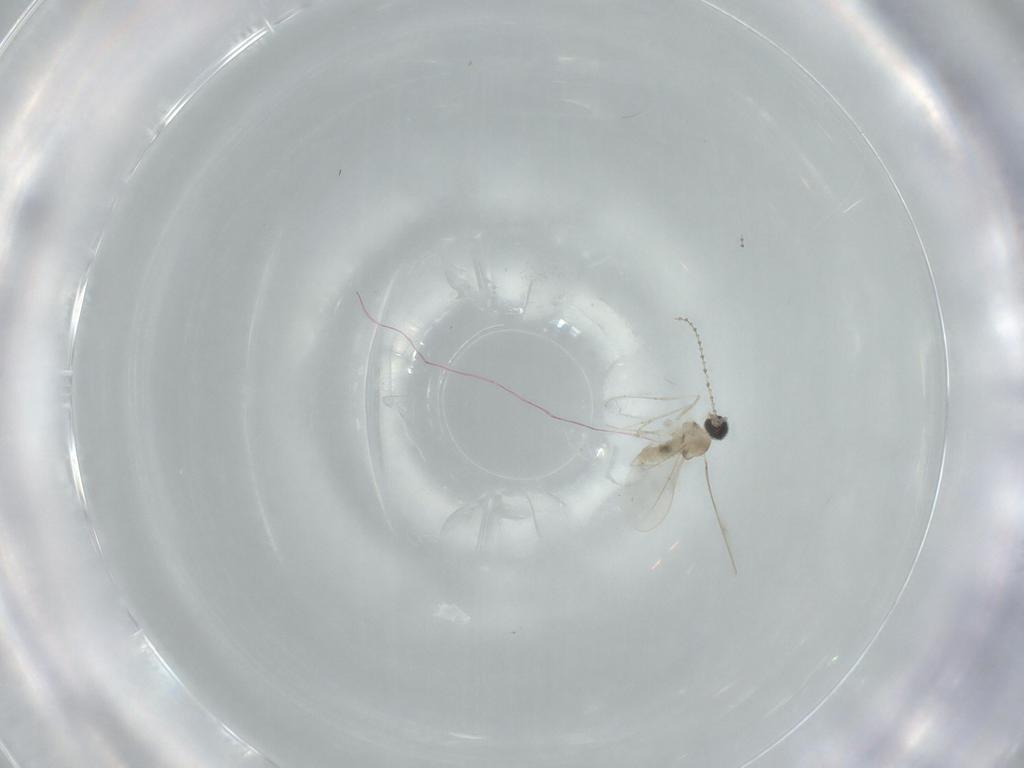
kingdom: Animalia
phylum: Arthropoda
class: Insecta
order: Diptera
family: Cecidomyiidae
